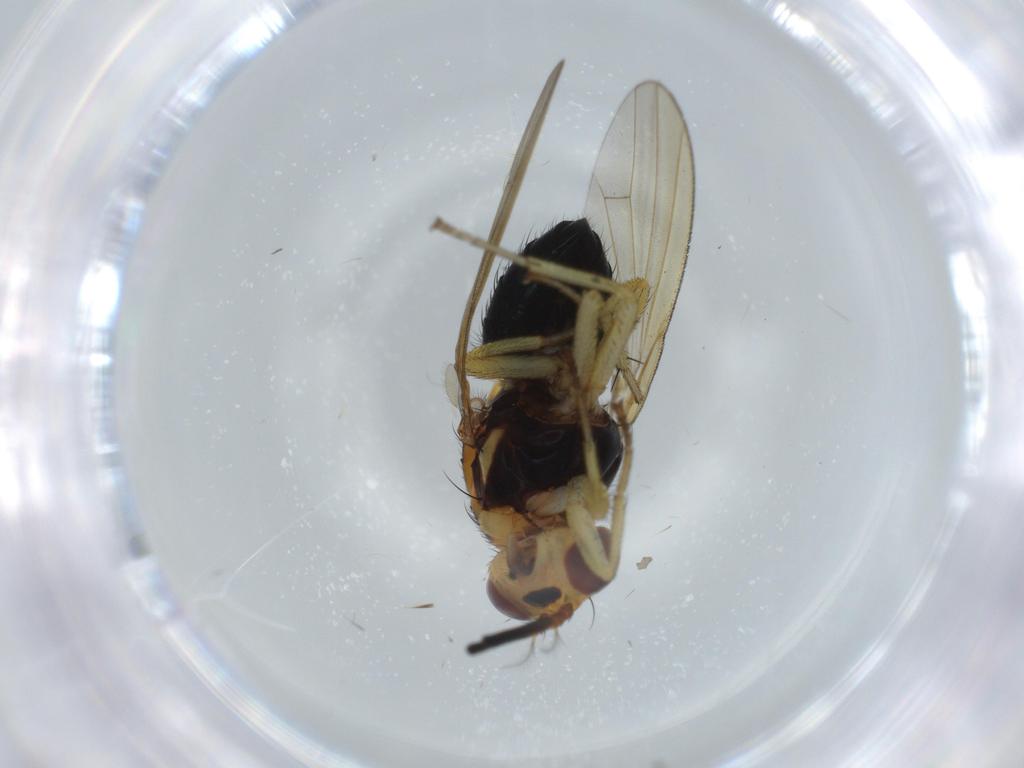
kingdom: Animalia
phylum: Arthropoda
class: Insecta
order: Diptera
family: Lauxaniidae
